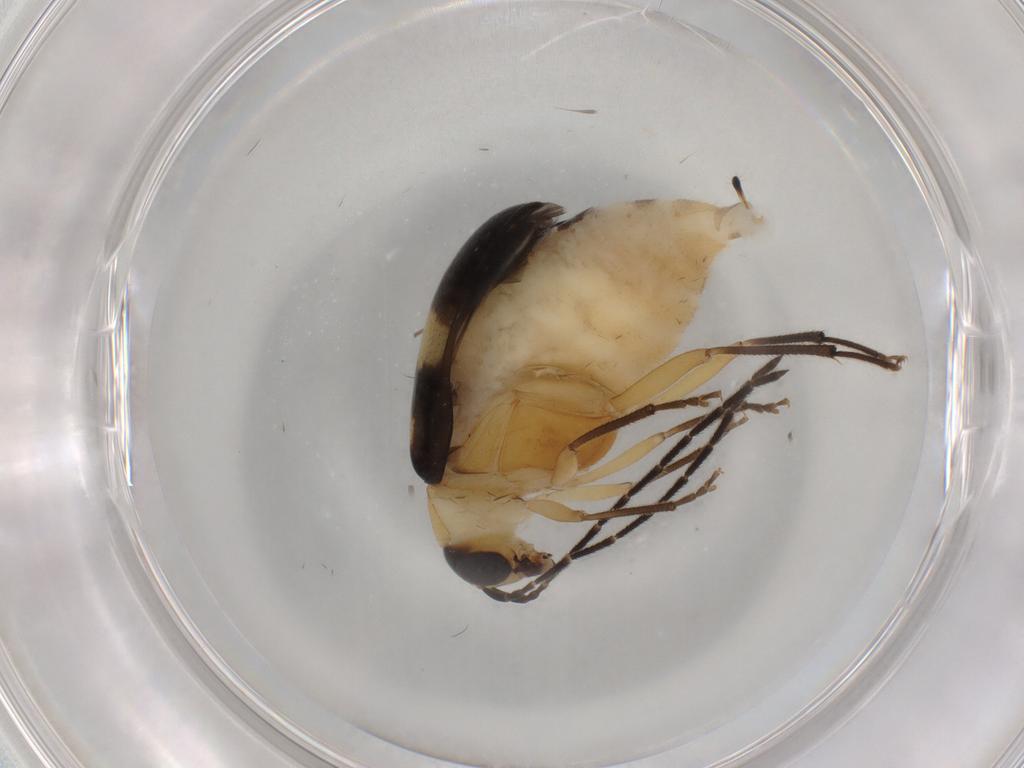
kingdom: Animalia
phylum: Arthropoda
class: Insecta
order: Coleoptera
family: Chrysomelidae
